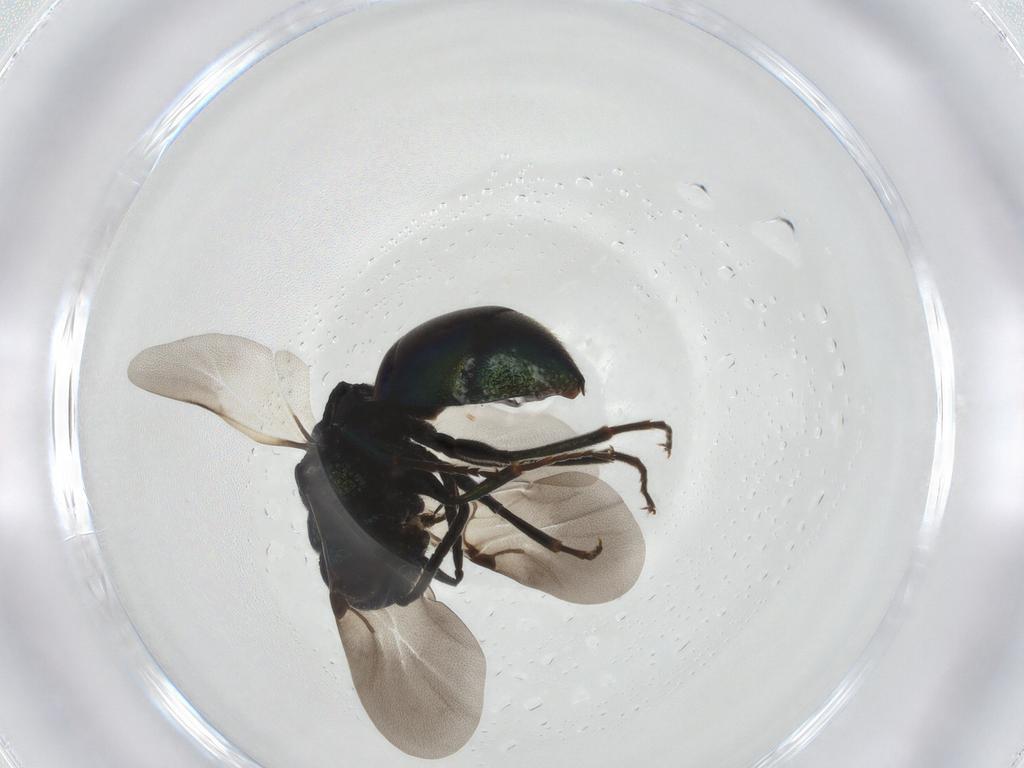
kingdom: Animalia
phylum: Arthropoda
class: Insecta
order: Hymenoptera
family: Chrysididae
